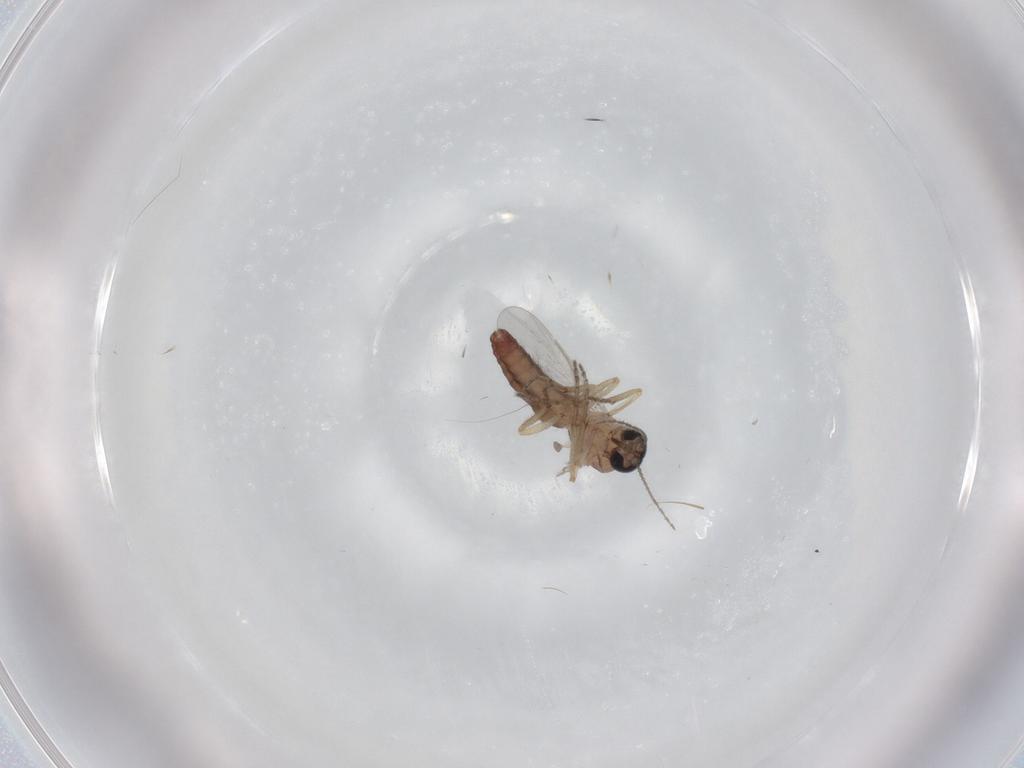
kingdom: Animalia
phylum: Arthropoda
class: Insecta
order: Diptera
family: Ceratopogonidae
